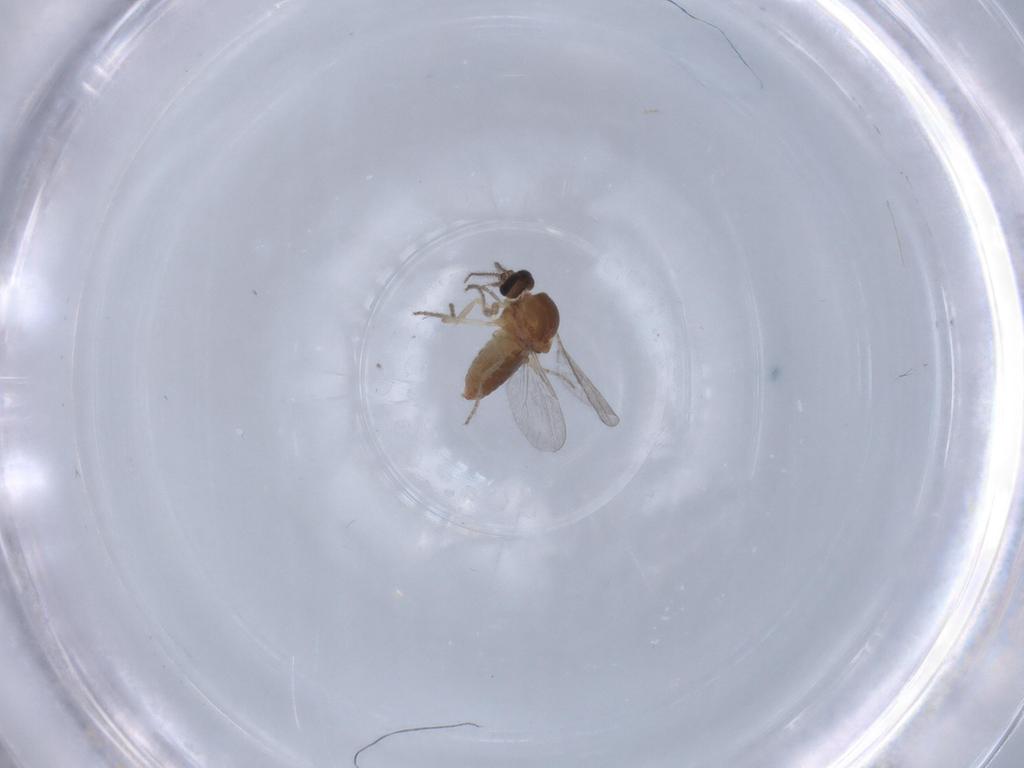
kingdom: Animalia
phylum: Arthropoda
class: Insecta
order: Diptera
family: Ceratopogonidae
